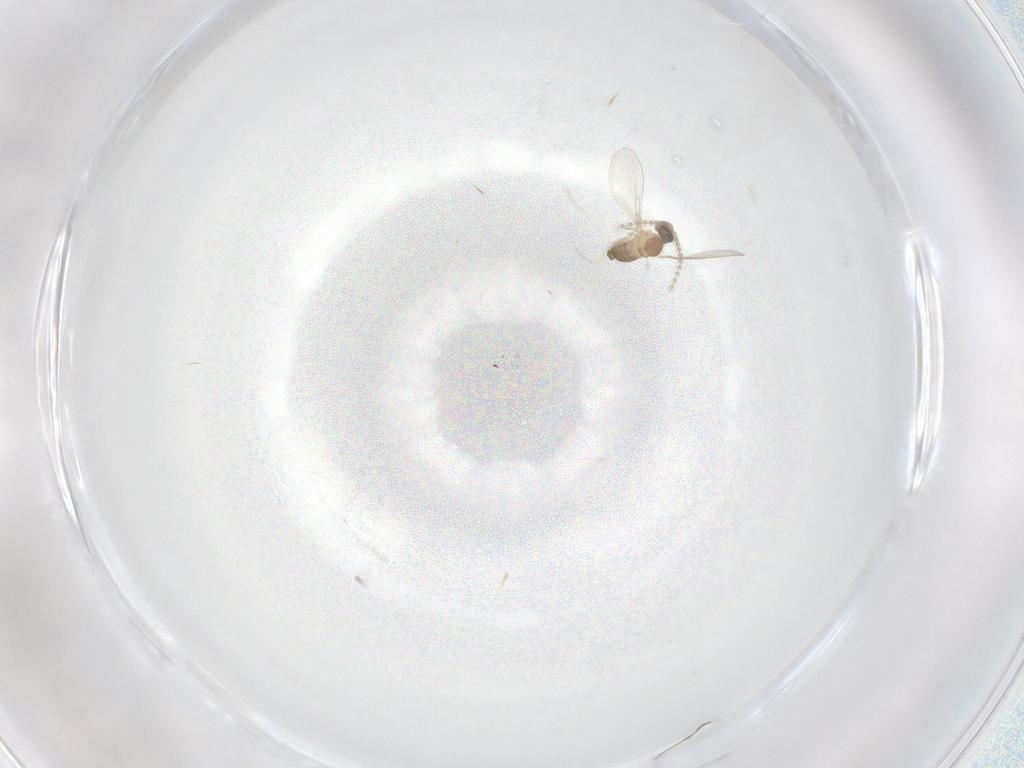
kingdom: Animalia
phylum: Arthropoda
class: Insecta
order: Diptera
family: Cecidomyiidae
